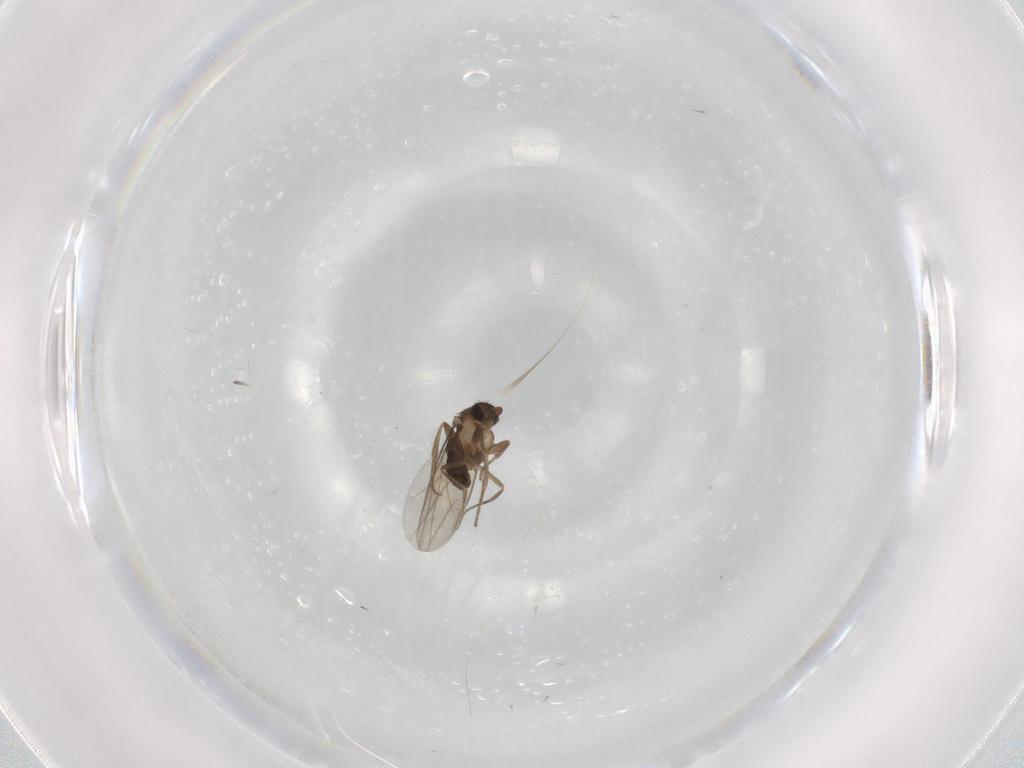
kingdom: Animalia
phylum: Arthropoda
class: Insecta
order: Diptera
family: Phoridae
